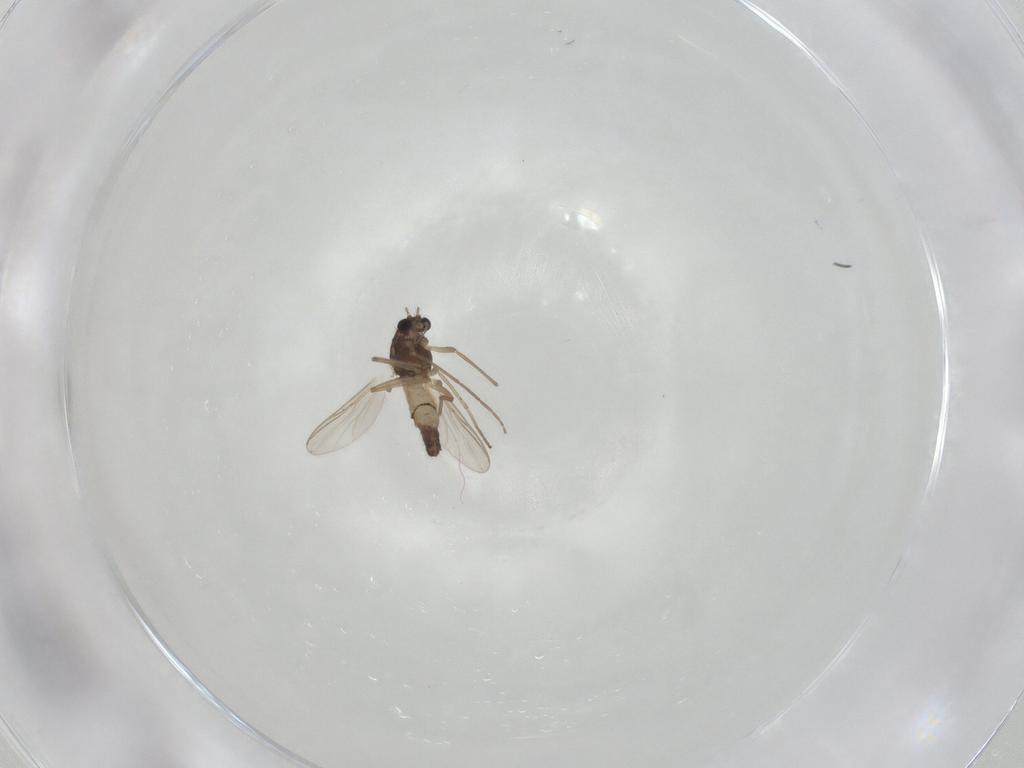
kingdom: Animalia
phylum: Arthropoda
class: Insecta
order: Diptera
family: Chironomidae
